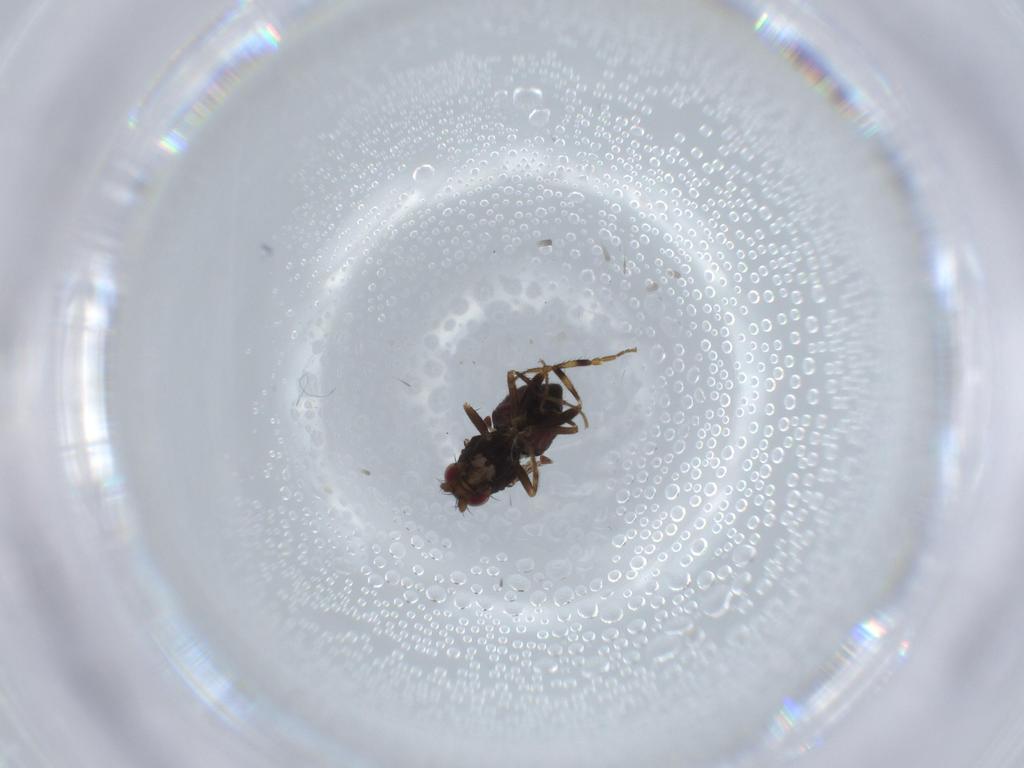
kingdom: Animalia
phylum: Arthropoda
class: Insecta
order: Diptera
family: Sphaeroceridae
